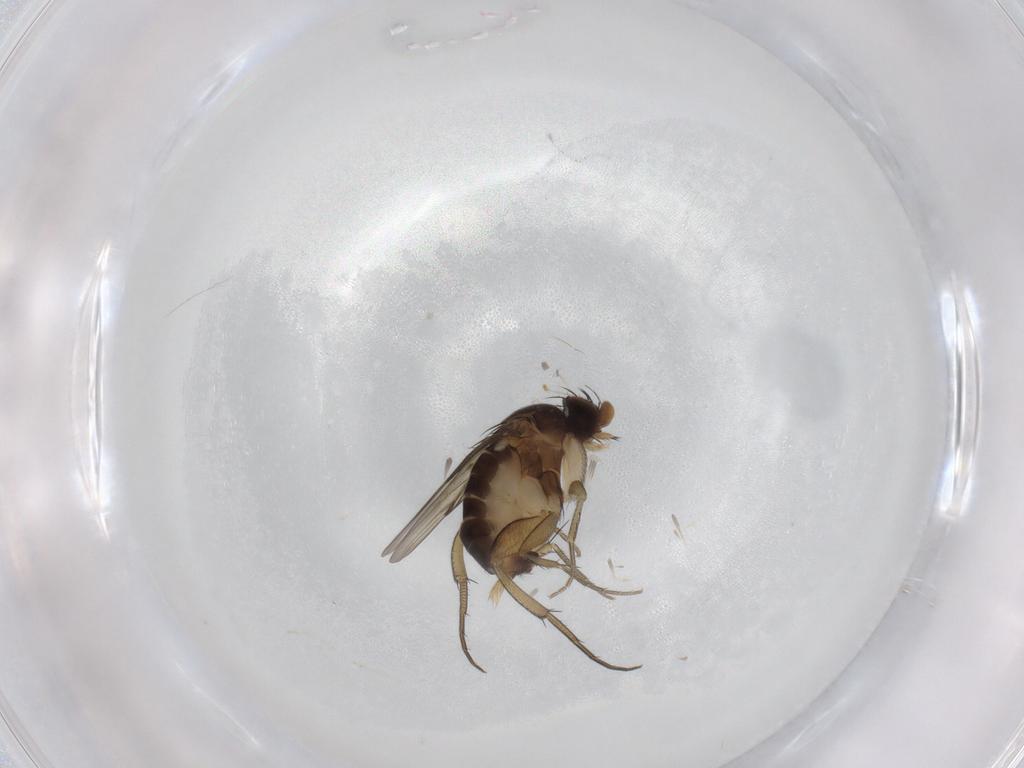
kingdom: Animalia
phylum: Arthropoda
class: Insecta
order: Diptera
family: Phoridae
